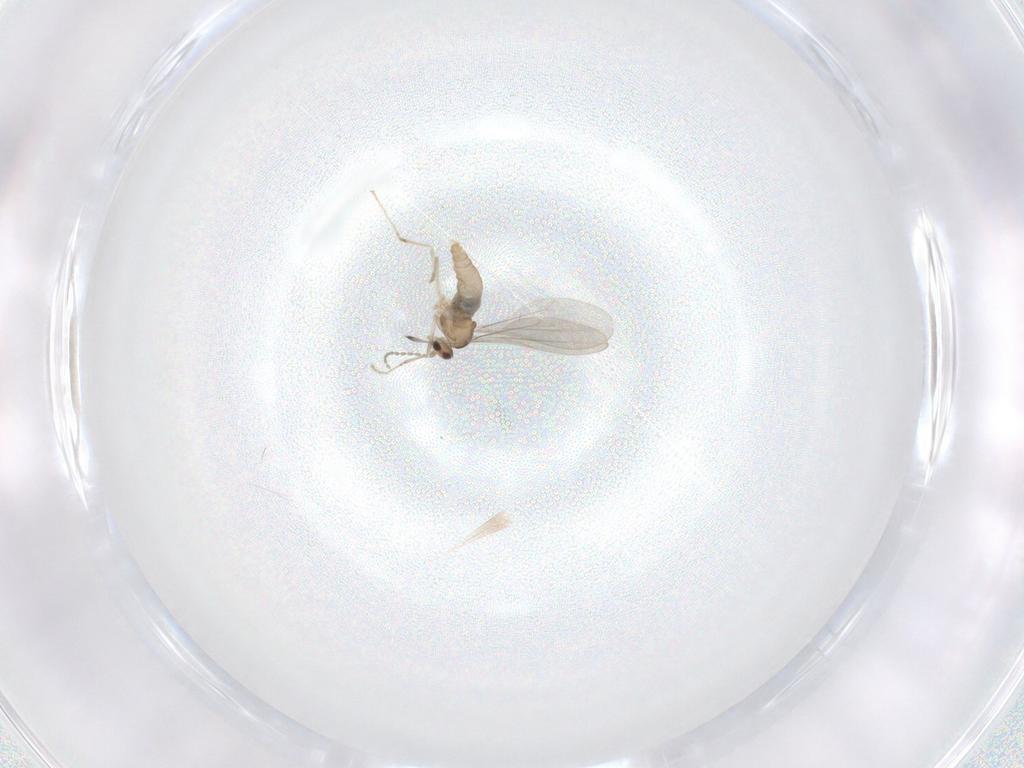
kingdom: Animalia
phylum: Arthropoda
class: Insecta
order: Diptera
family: Cecidomyiidae
